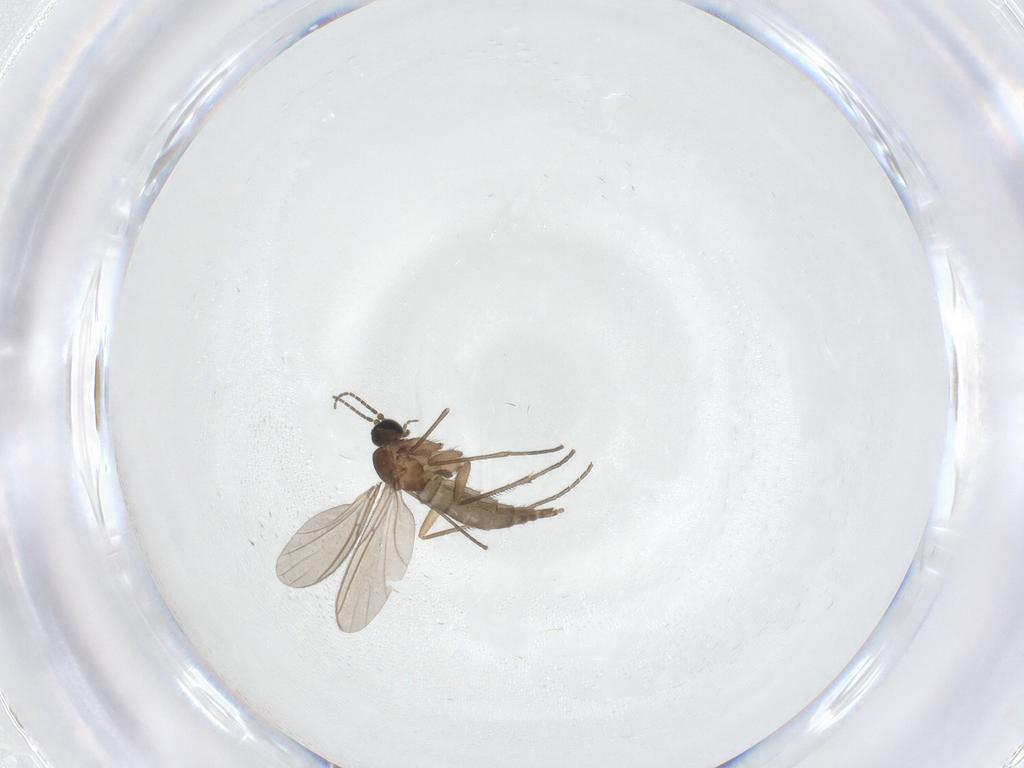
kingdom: Animalia
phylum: Arthropoda
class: Insecta
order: Diptera
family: Sciaridae
